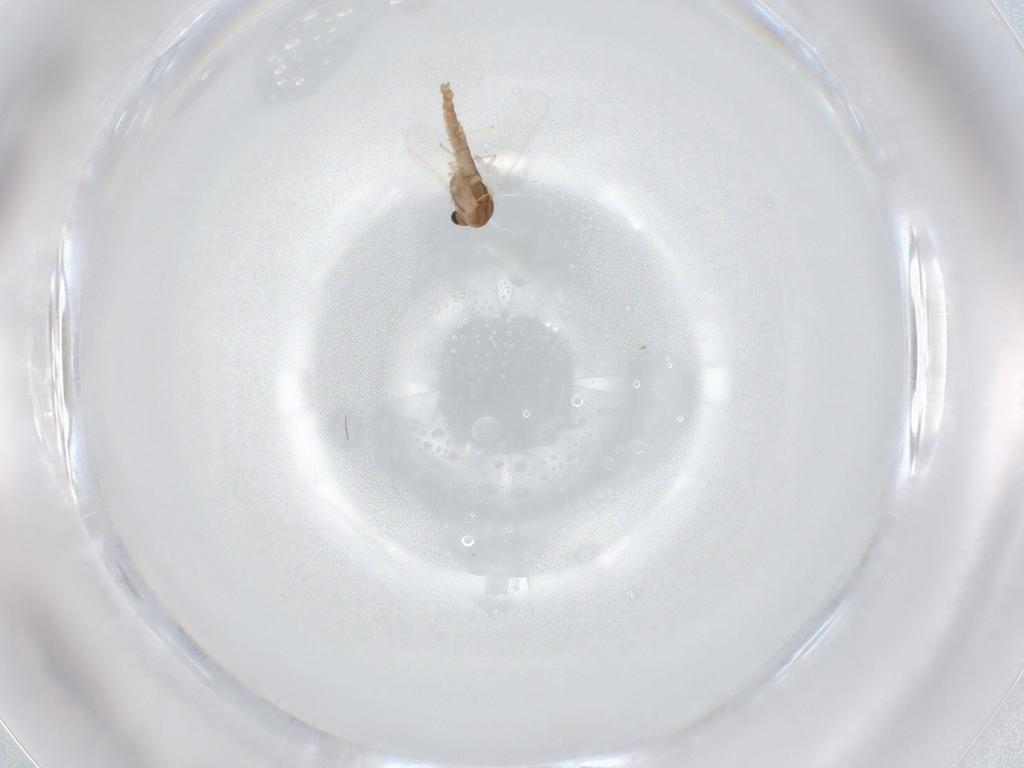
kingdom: Animalia
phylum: Arthropoda
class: Insecta
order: Diptera
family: Chironomidae
